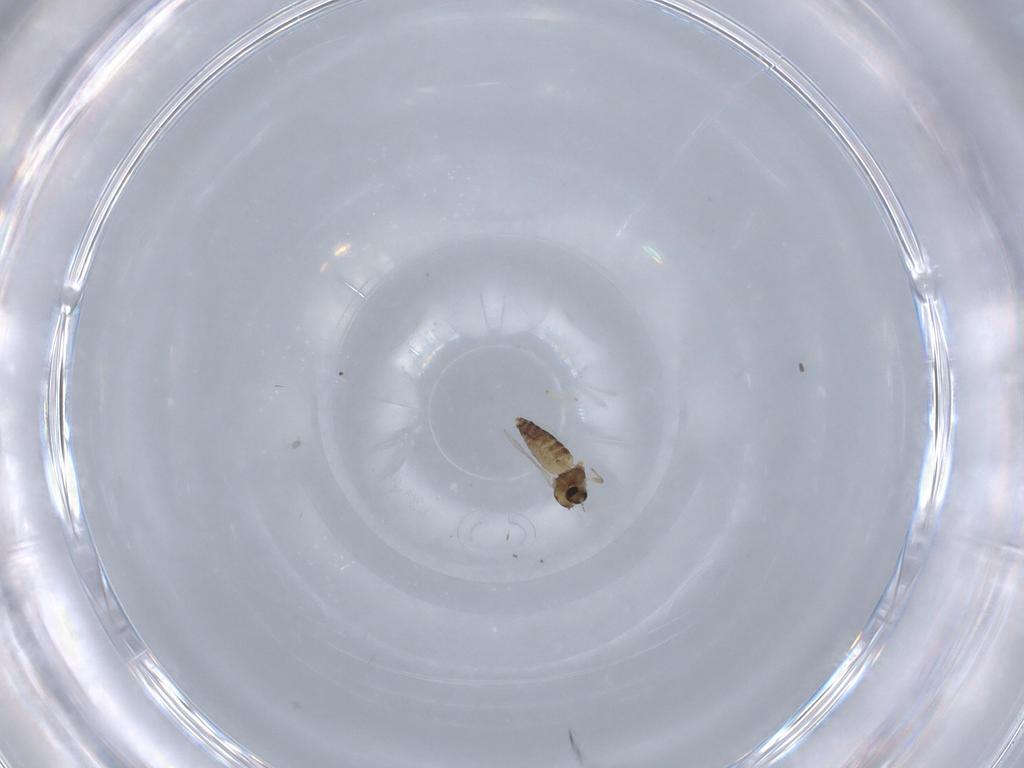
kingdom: Animalia
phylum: Arthropoda
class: Insecta
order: Diptera
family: Chironomidae
